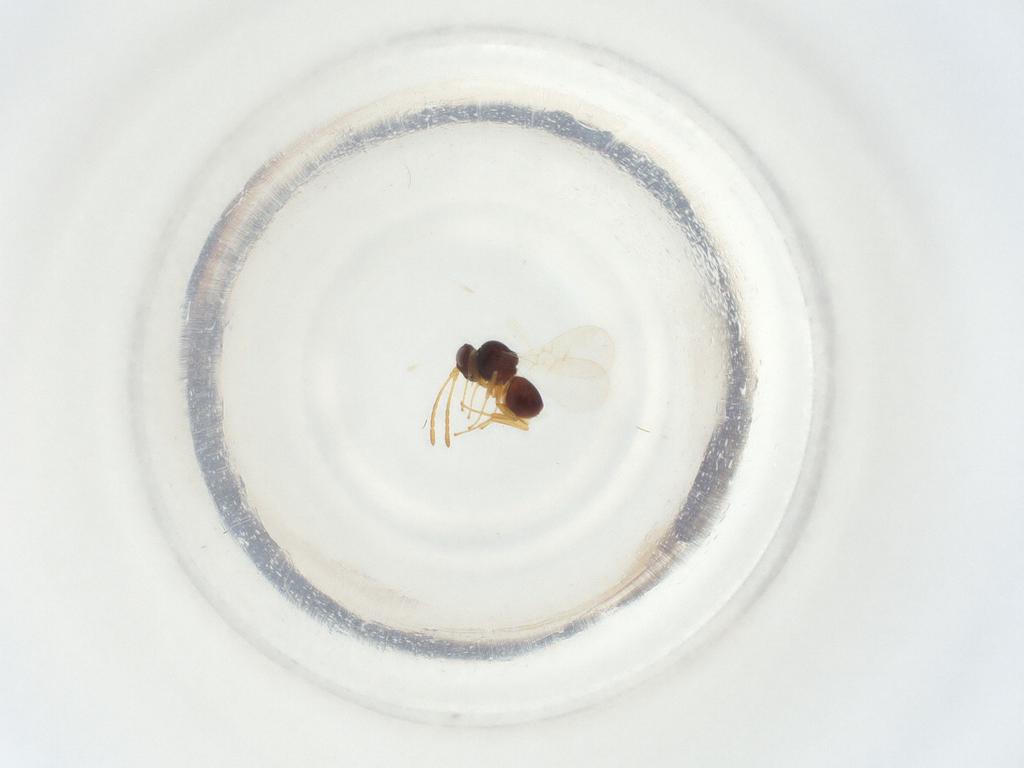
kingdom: Animalia
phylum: Arthropoda
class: Insecta
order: Hymenoptera
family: Figitidae
